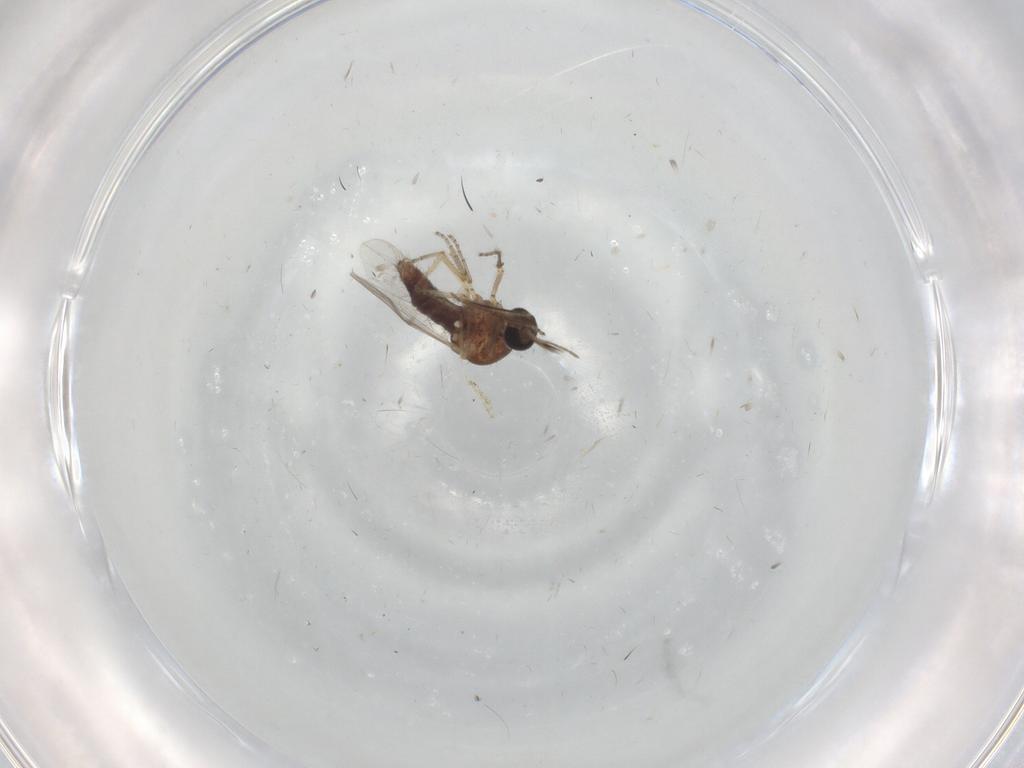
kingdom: Animalia
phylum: Arthropoda
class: Insecta
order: Diptera
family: Ceratopogonidae
